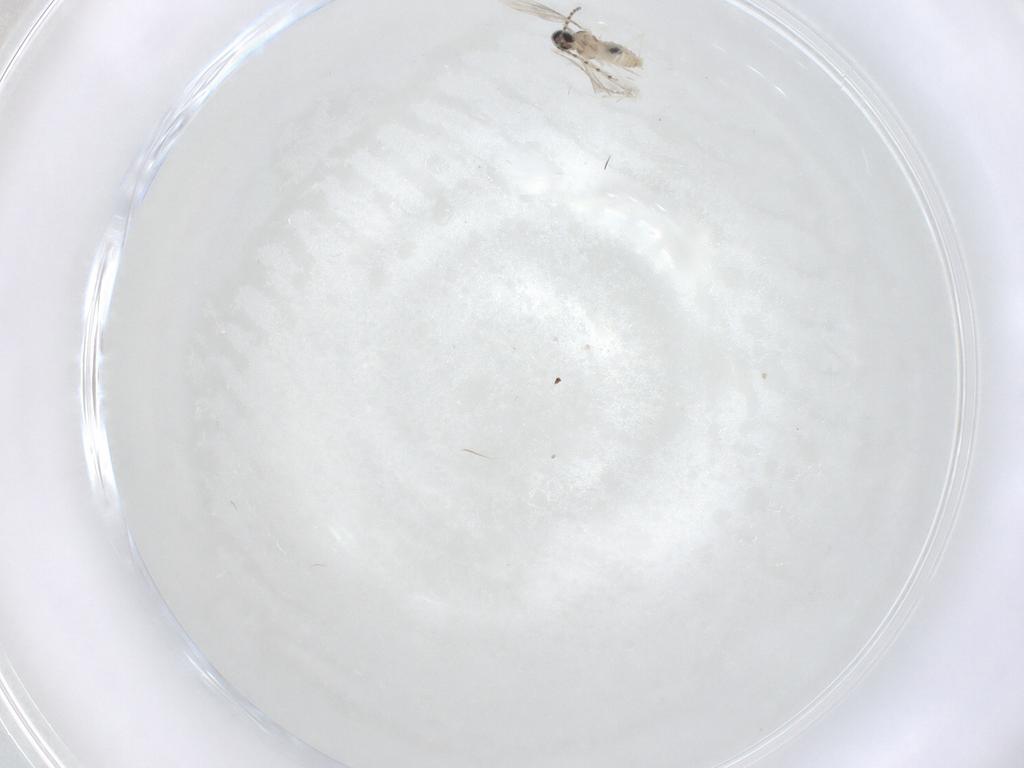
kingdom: Animalia
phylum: Arthropoda
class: Insecta
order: Diptera
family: Cecidomyiidae
